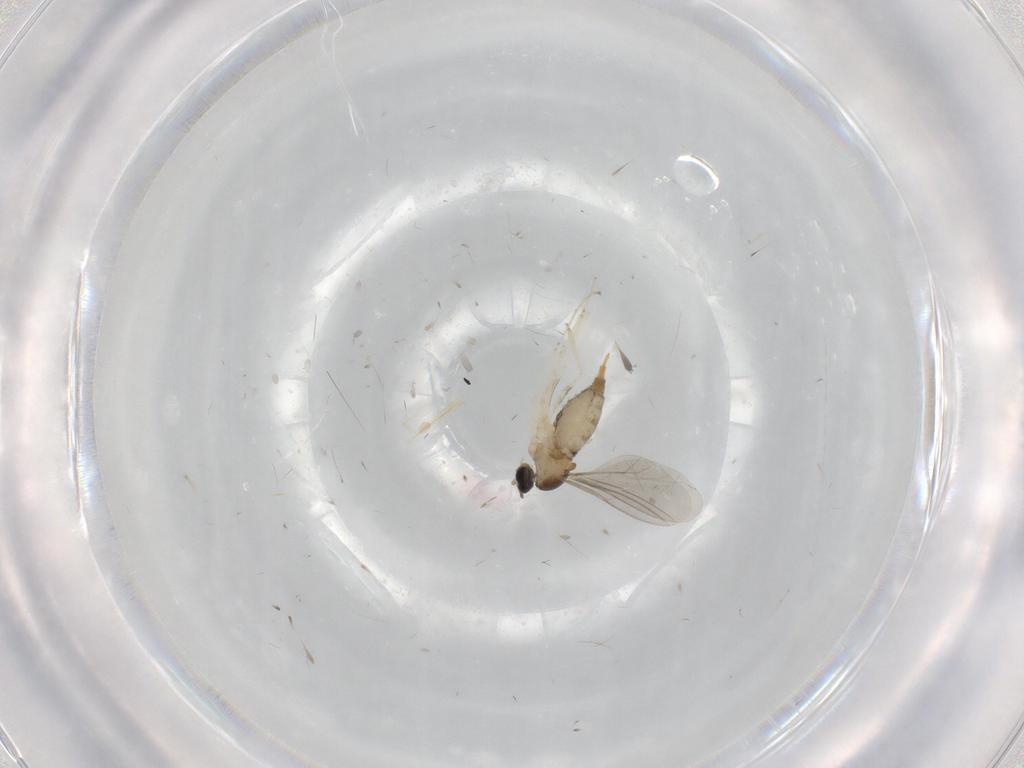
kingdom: Animalia
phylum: Arthropoda
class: Insecta
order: Diptera
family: Cecidomyiidae
